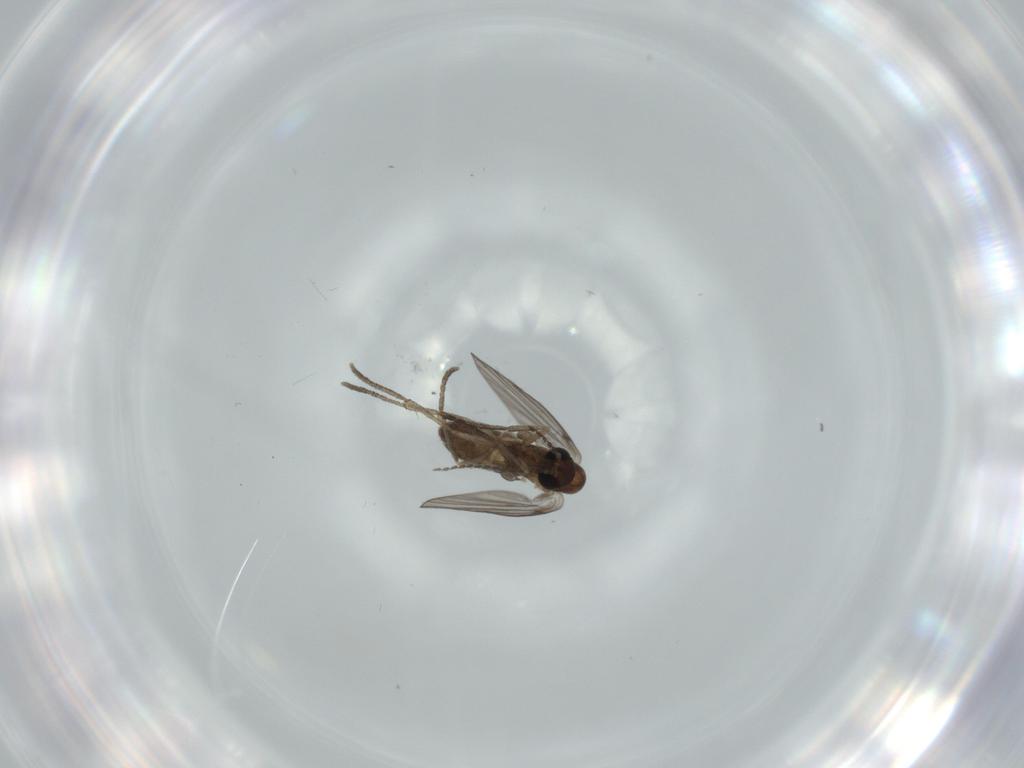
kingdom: Animalia
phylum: Arthropoda
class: Insecta
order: Diptera
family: Psychodidae
